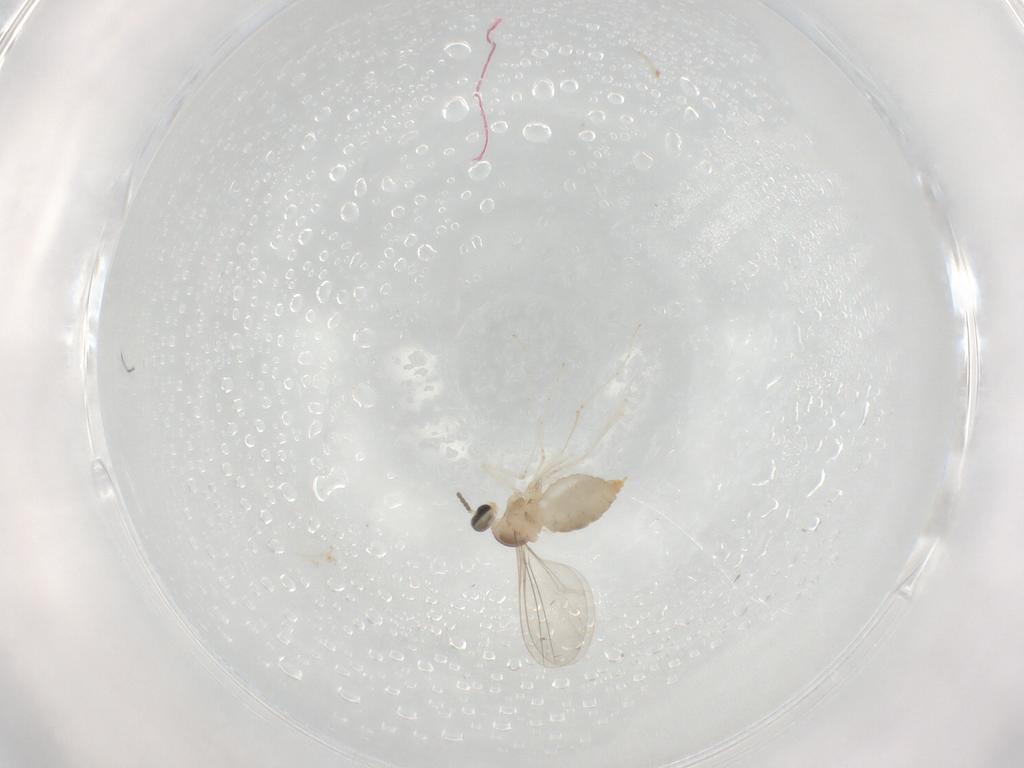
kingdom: Animalia
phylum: Arthropoda
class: Insecta
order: Diptera
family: Cecidomyiidae
